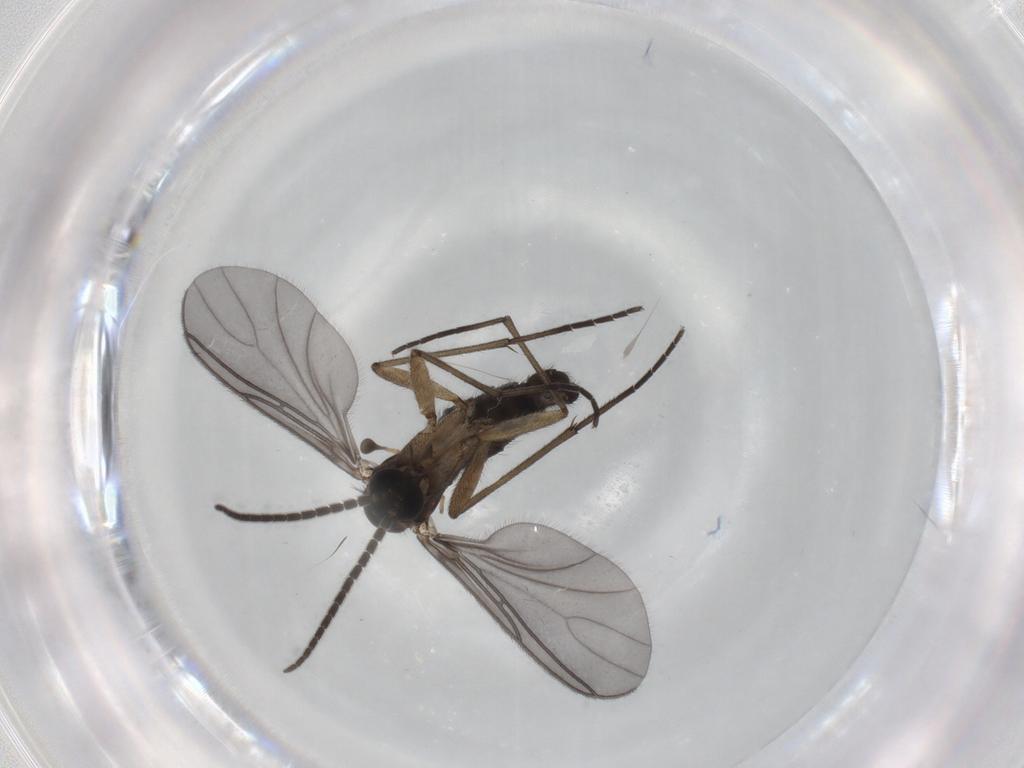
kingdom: Animalia
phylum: Arthropoda
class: Insecta
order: Diptera
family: Sciaridae
